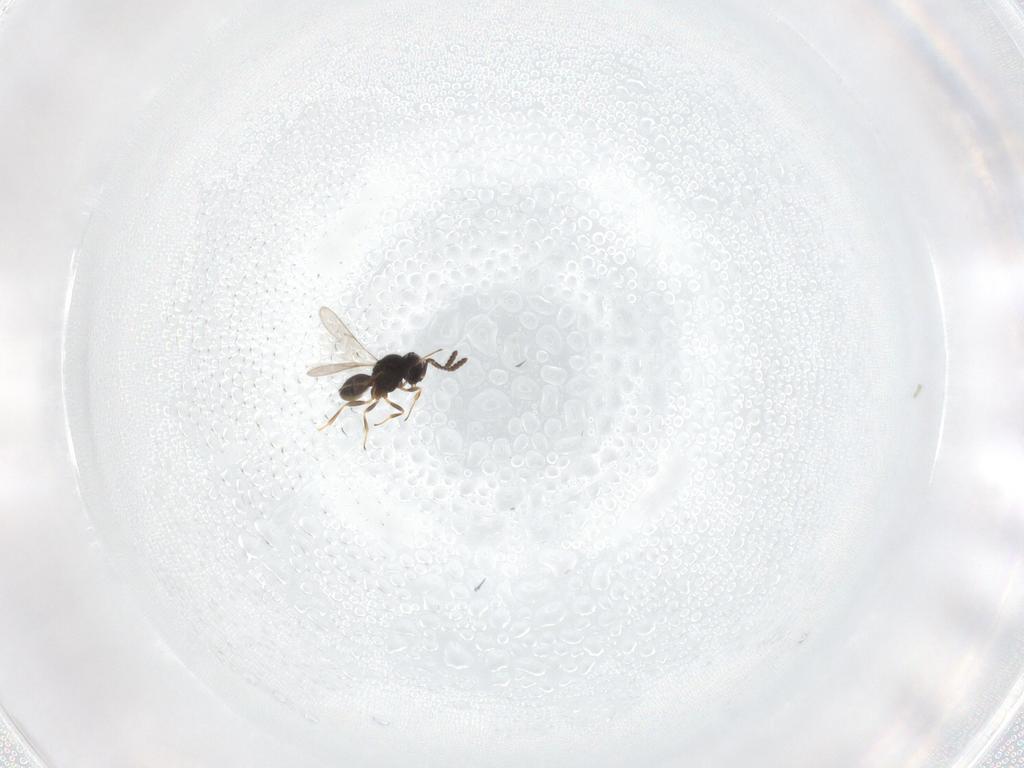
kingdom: Animalia
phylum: Arthropoda
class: Insecta
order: Hymenoptera
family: Scelionidae
